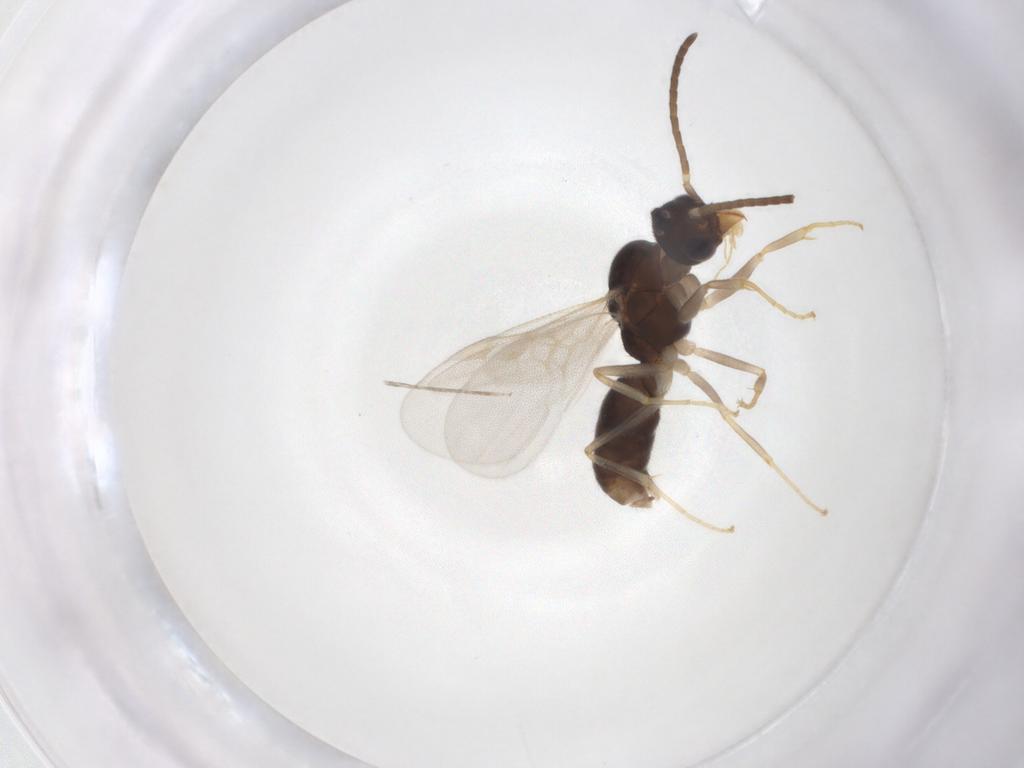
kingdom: Animalia
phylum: Arthropoda
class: Insecta
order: Hymenoptera
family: Formicidae
